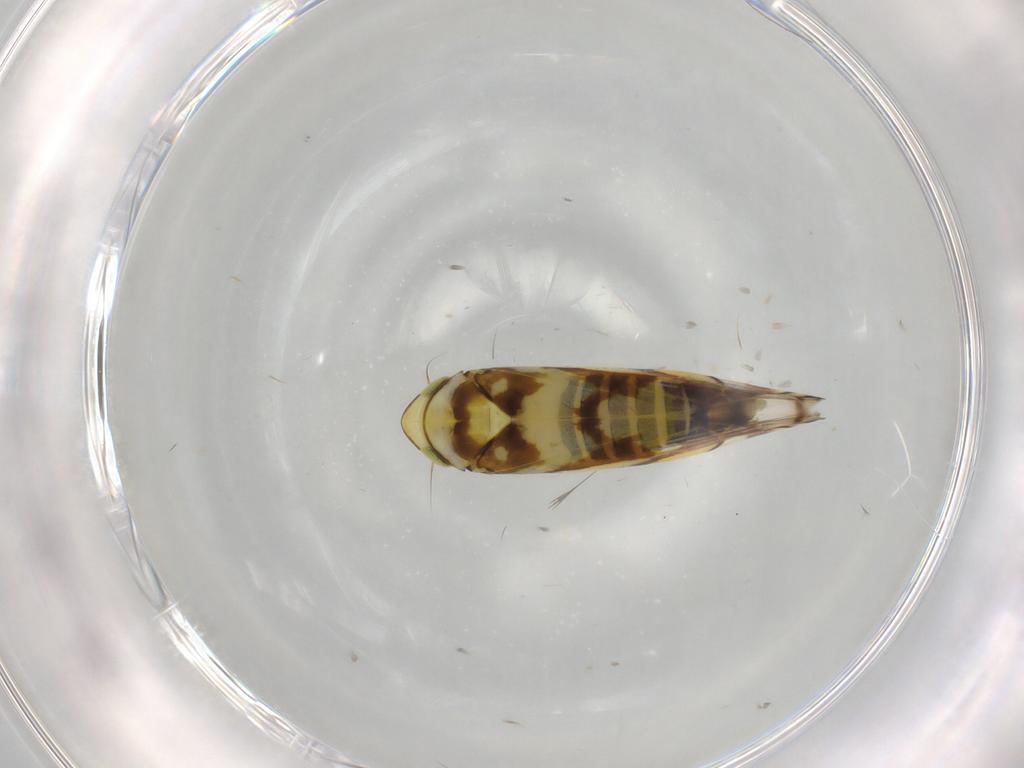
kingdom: Animalia
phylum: Arthropoda
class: Insecta
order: Hemiptera
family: Cicadellidae
